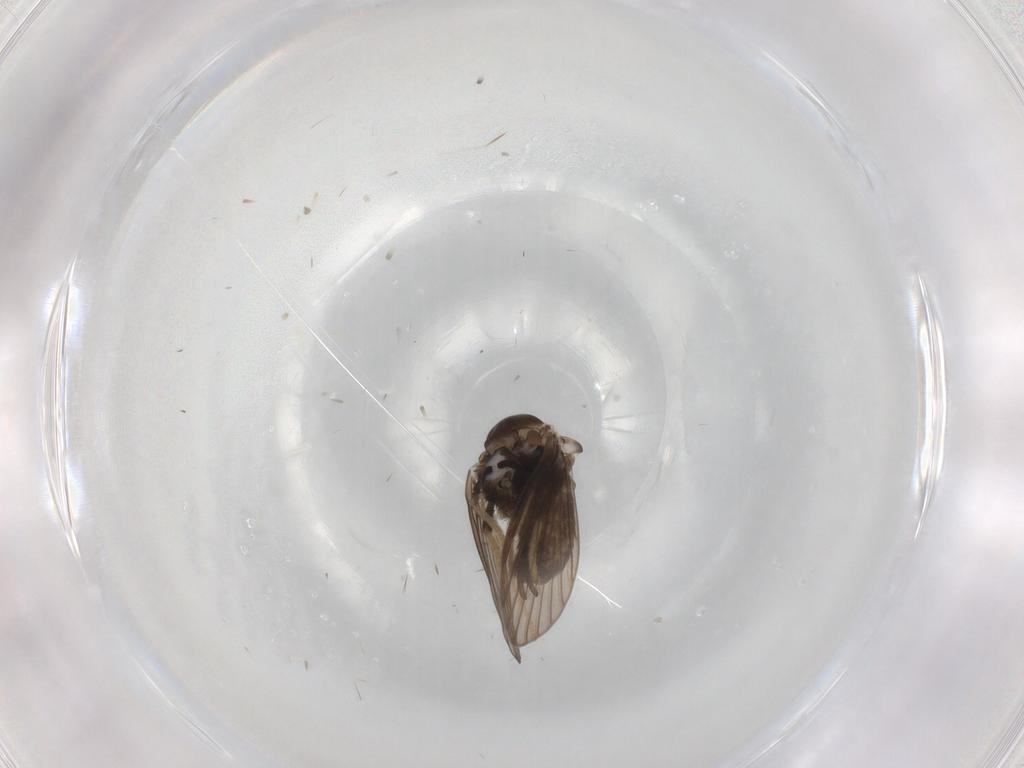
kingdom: Animalia
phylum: Arthropoda
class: Insecta
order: Diptera
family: Psychodidae
